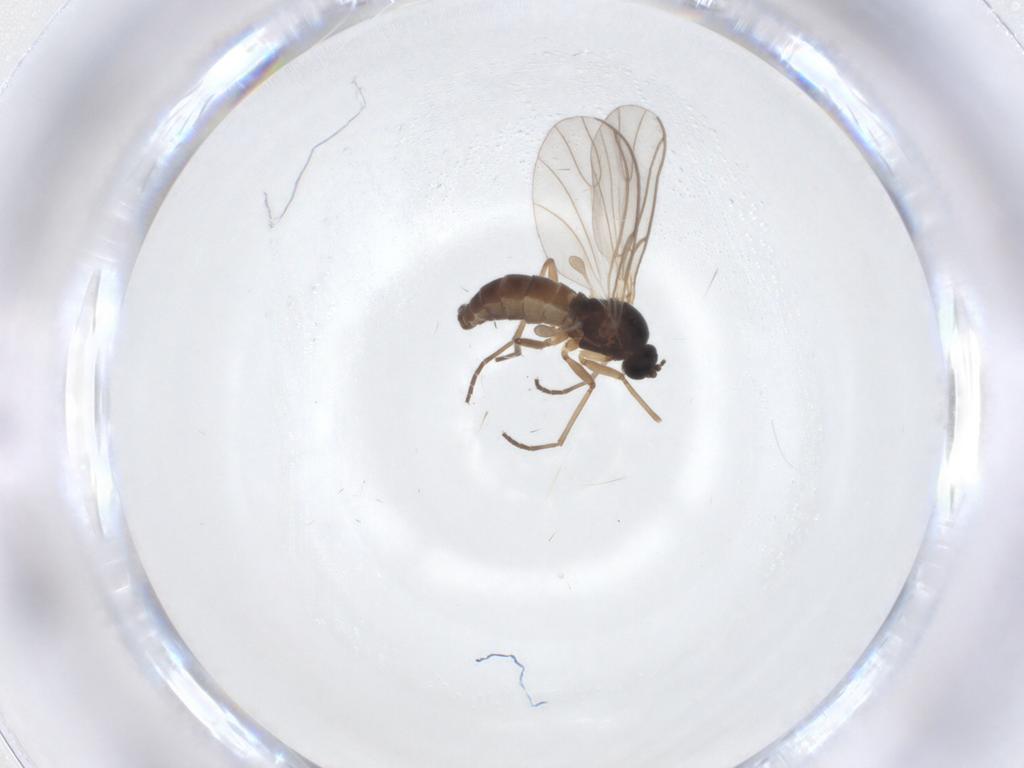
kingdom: Animalia
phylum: Arthropoda
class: Insecta
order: Diptera
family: Sciaridae
